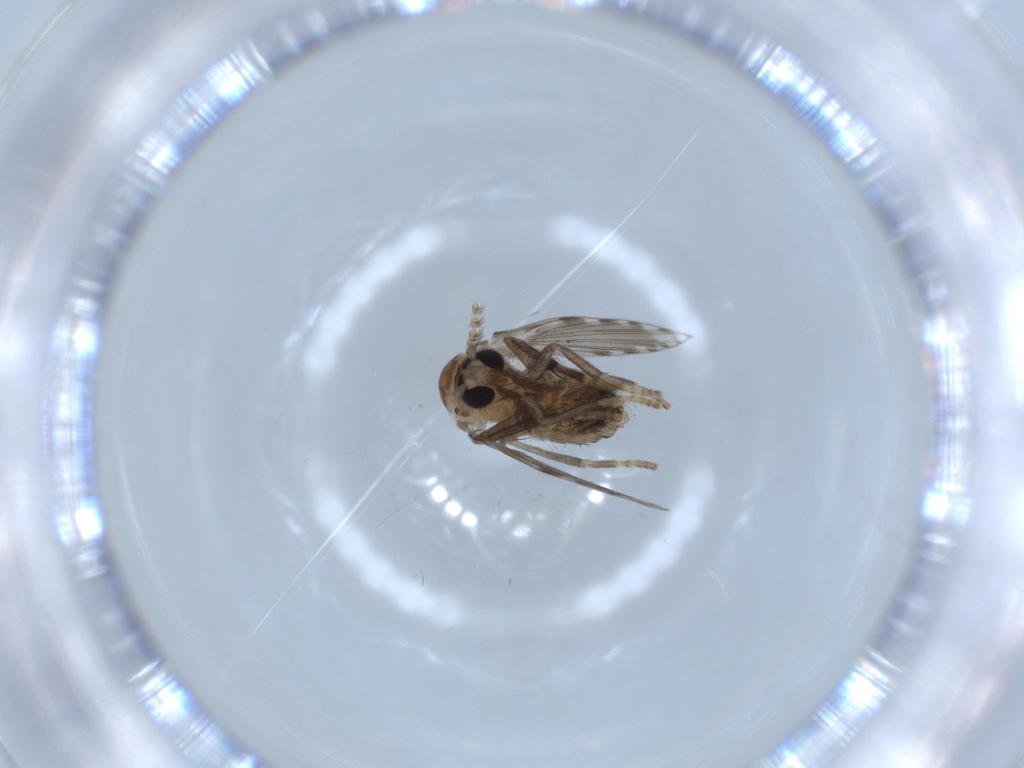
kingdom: Animalia
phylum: Arthropoda
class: Insecta
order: Diptera
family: Psychodidae
